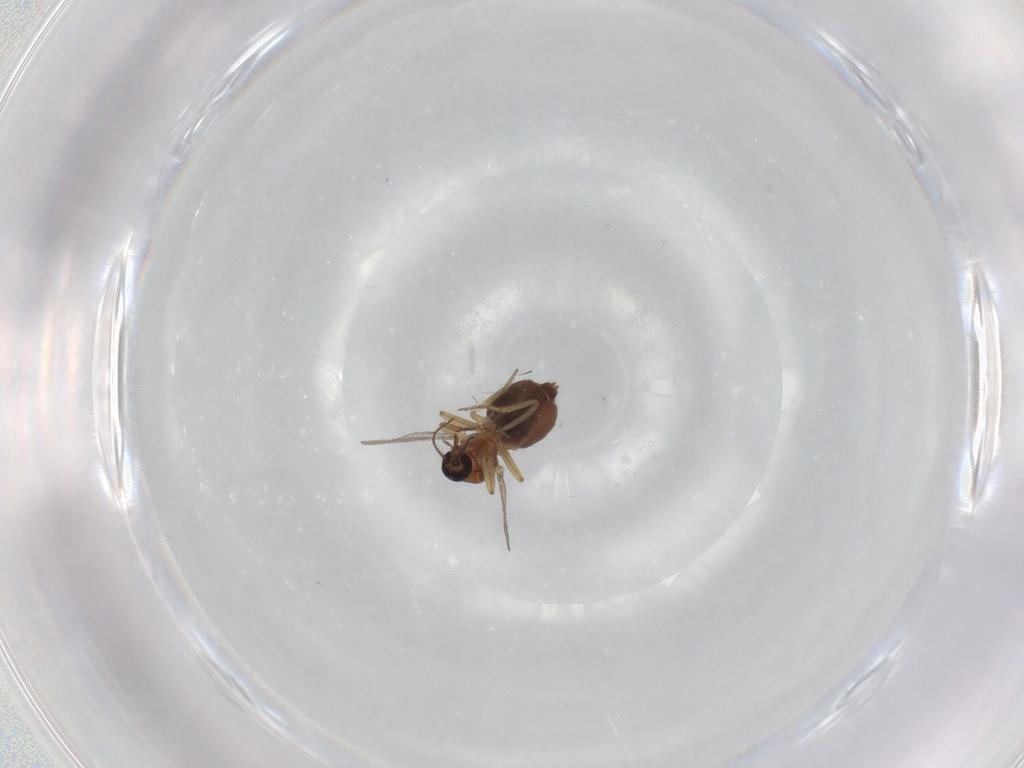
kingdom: Animalia
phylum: Arthropoda
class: Insecta
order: Diptera
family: Ceratopogonidae
